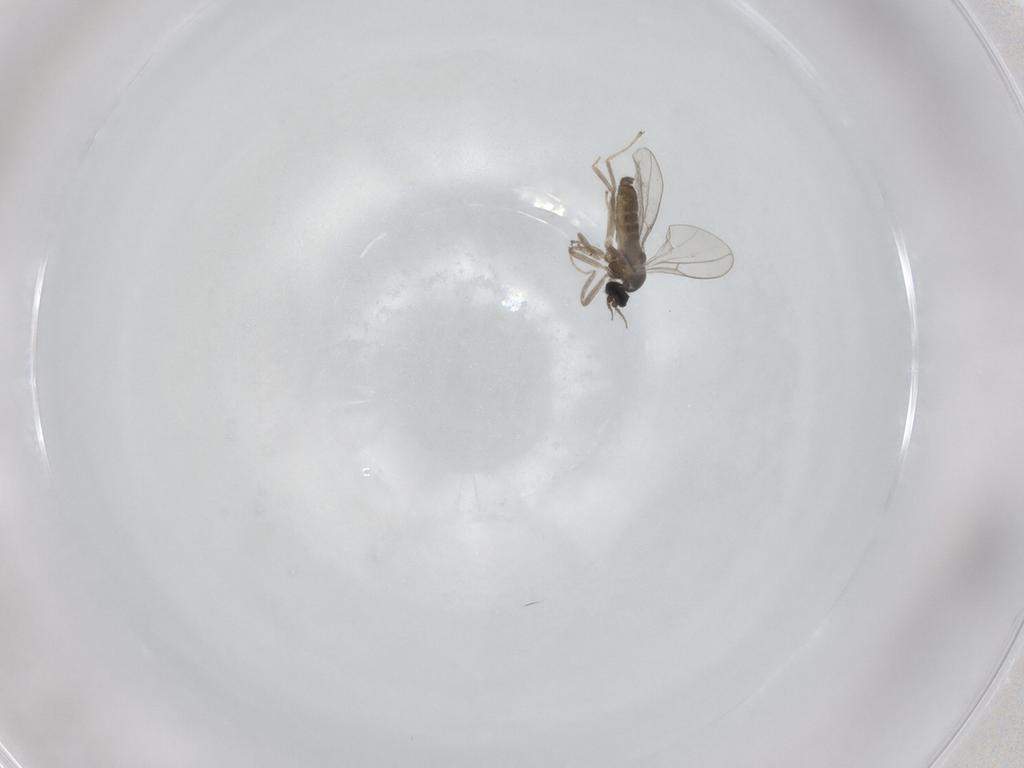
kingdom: Animalia
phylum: Arthropoda
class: Insecta
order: Diptera
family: Cecidomyiidae
